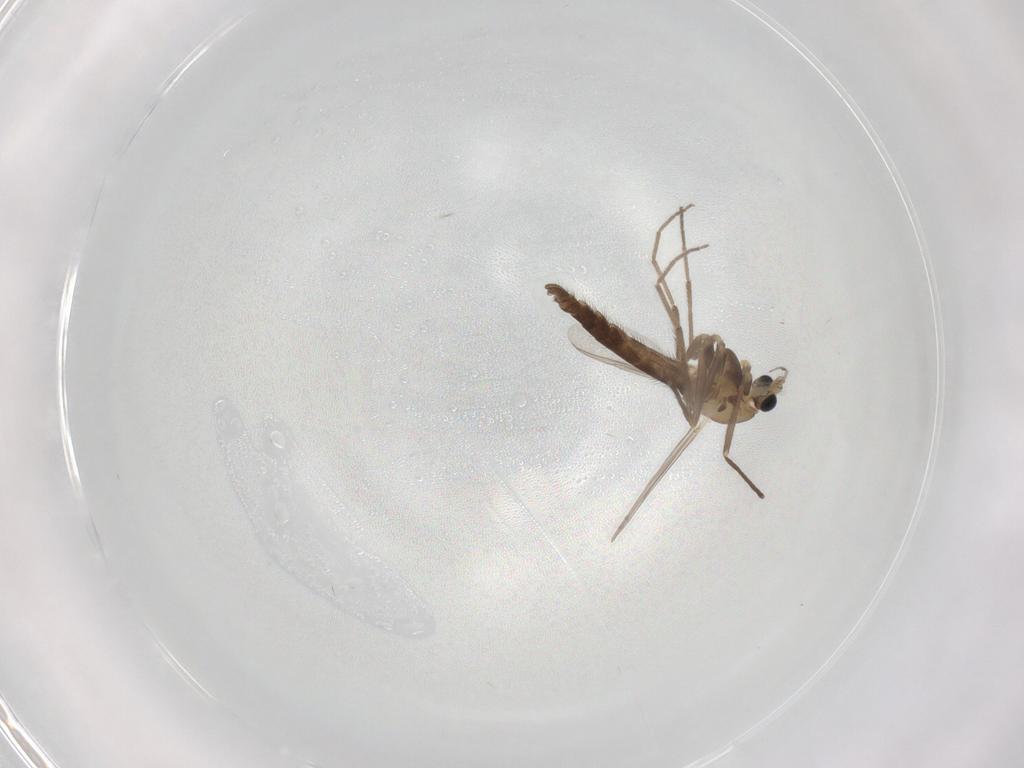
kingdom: Animalia
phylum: Arthropoda
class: Insecta
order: Diptera
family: Chironomidae
